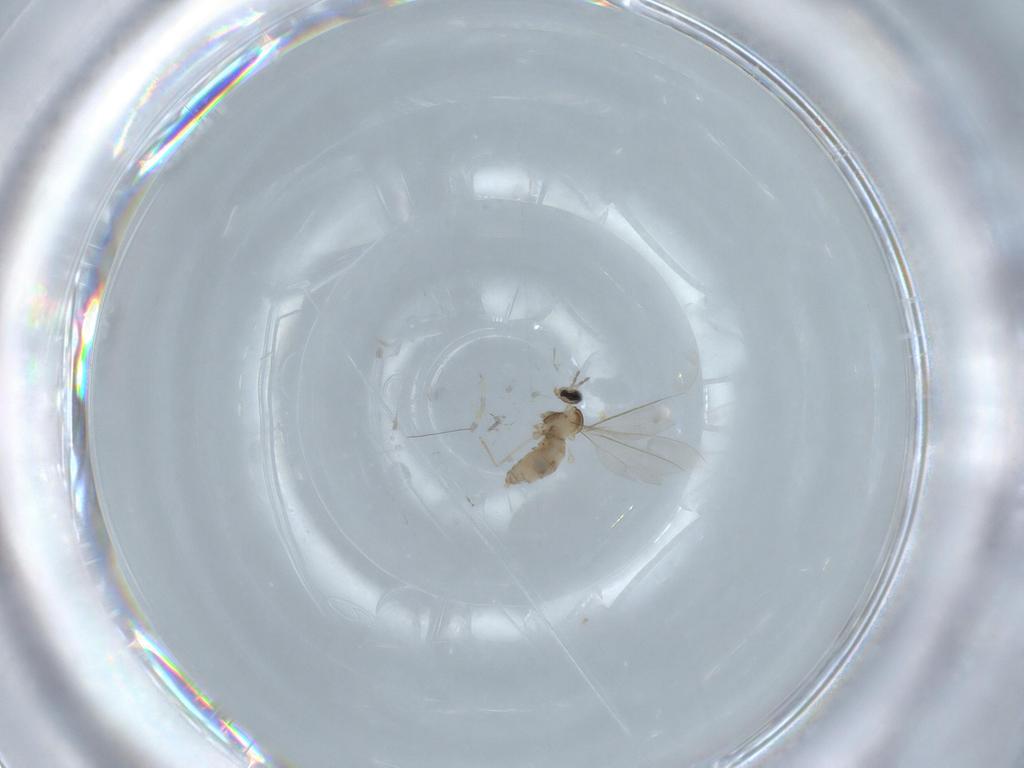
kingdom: Animalia
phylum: Arthropoda
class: Insecta
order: Diptera
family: Cecidomyiidae
